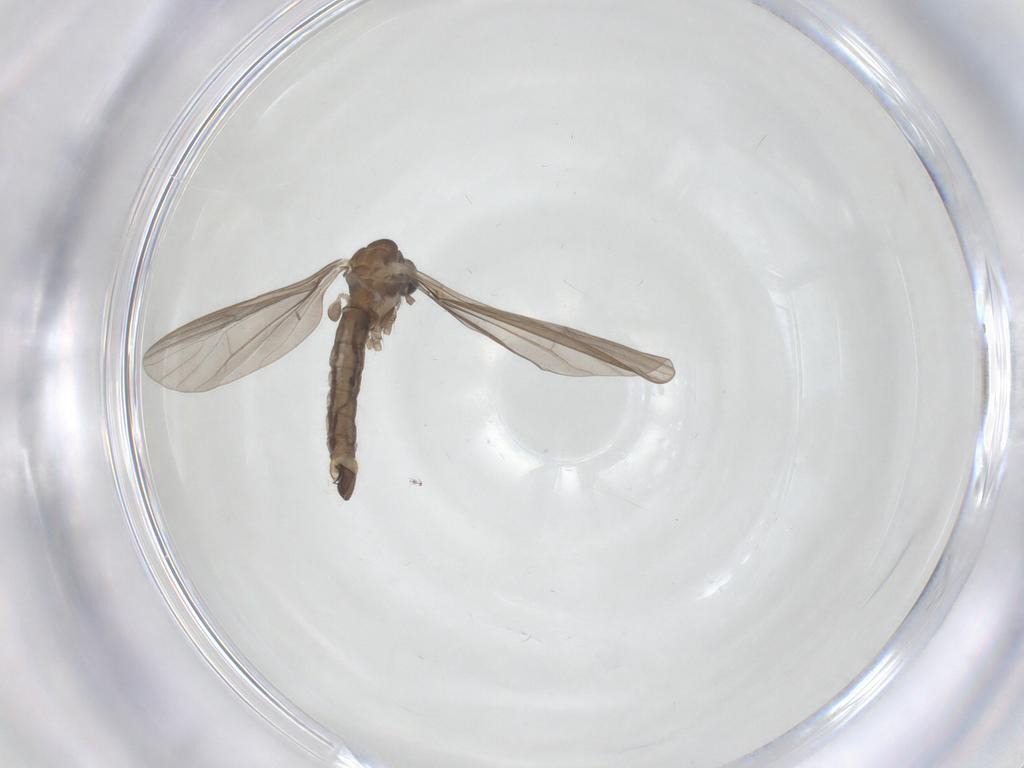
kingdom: Animalia
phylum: Arthropoda
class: Insecta
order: Diptera
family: Limoniidae
